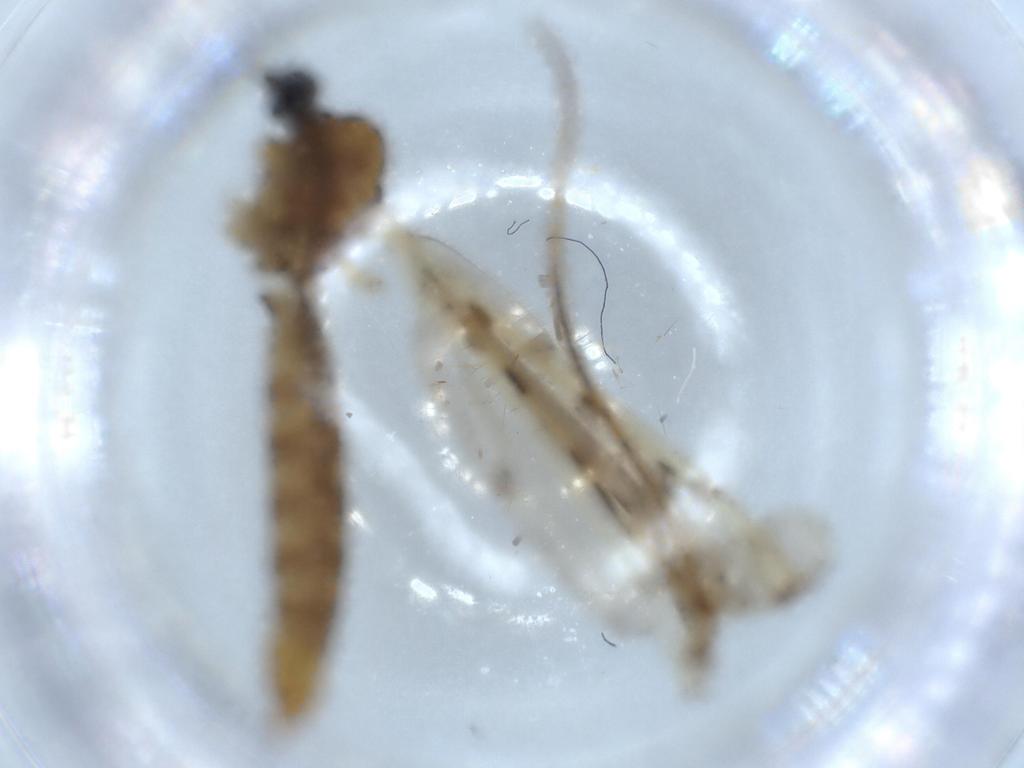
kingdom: Animalia
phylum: Arthropoda
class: Insecta
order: Diptera
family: Limoniidae
